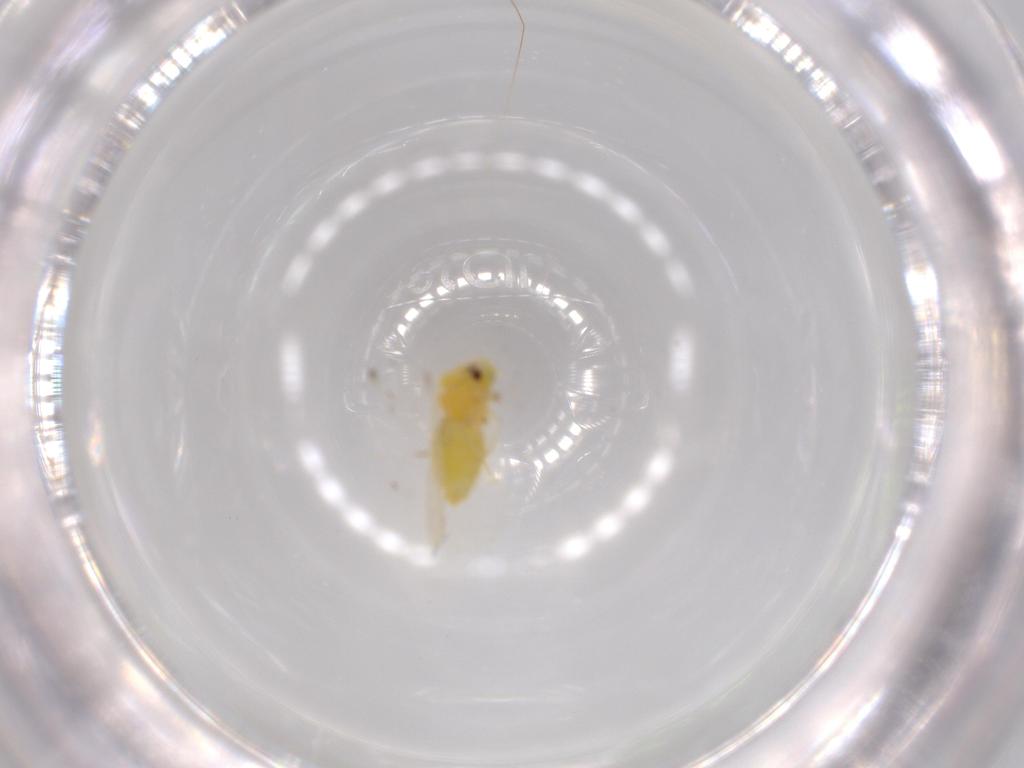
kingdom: Animalia
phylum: Arthropoda
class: Insecta
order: Hemiptera
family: Aleyrodidae
